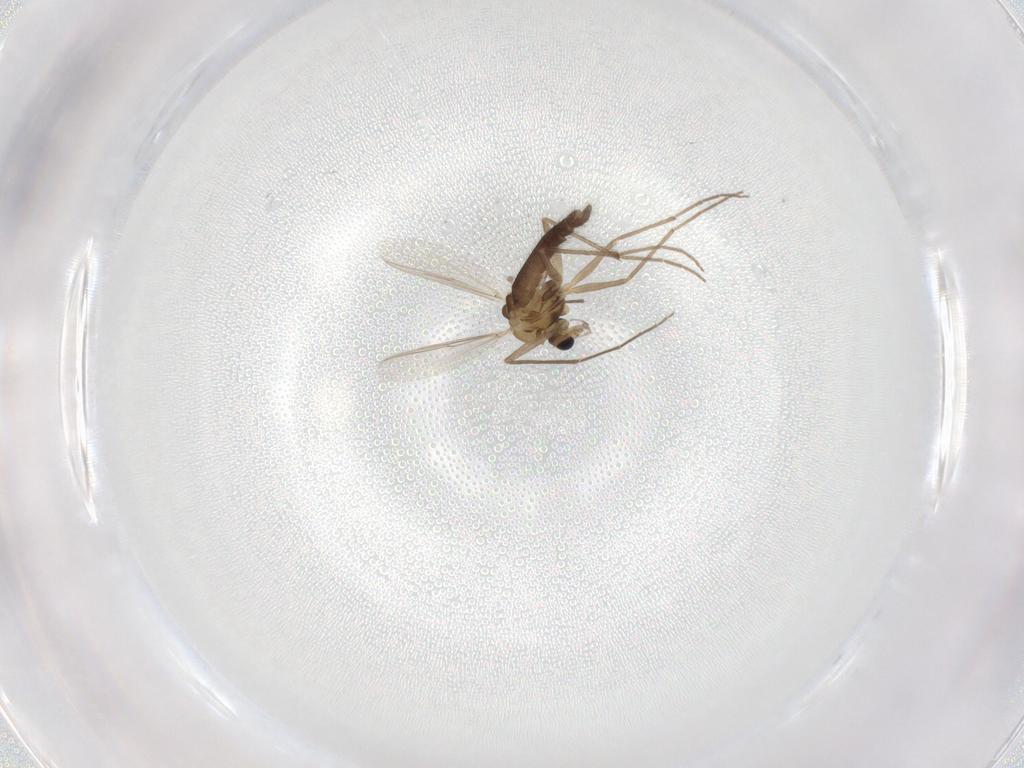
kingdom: Animalia
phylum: Arthropoda
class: Insecta
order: Diptera
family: Chironomidae
